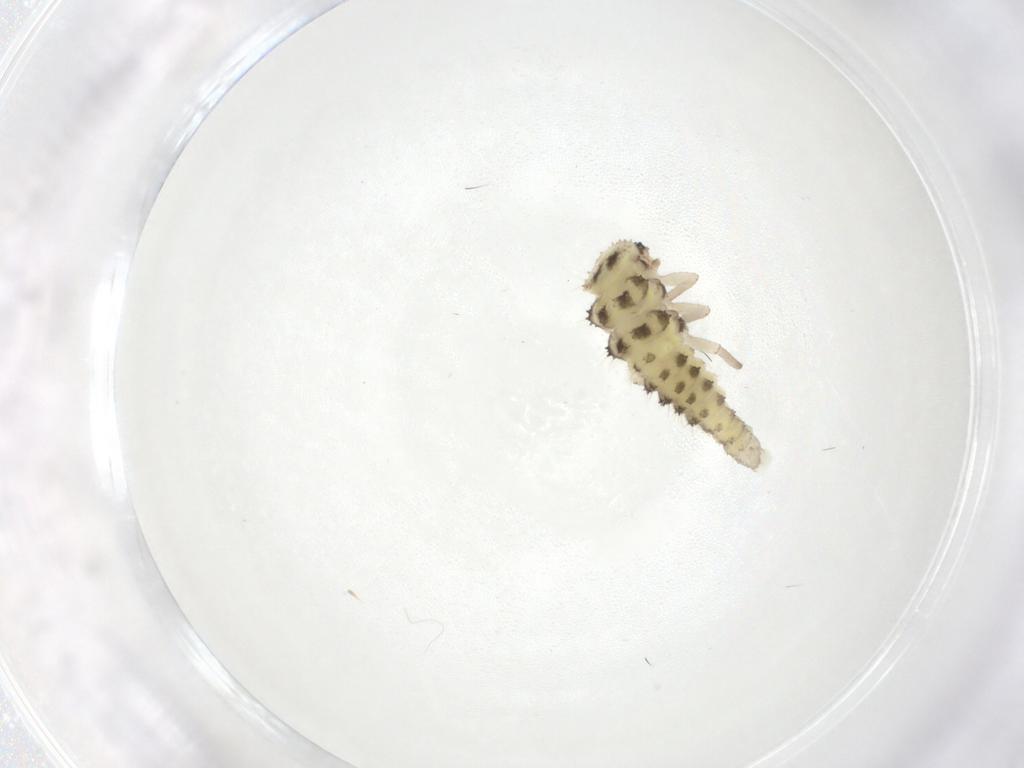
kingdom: Animalia
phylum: Arthropoda
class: Insecta
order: Coleoptera
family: Coccinellidae
